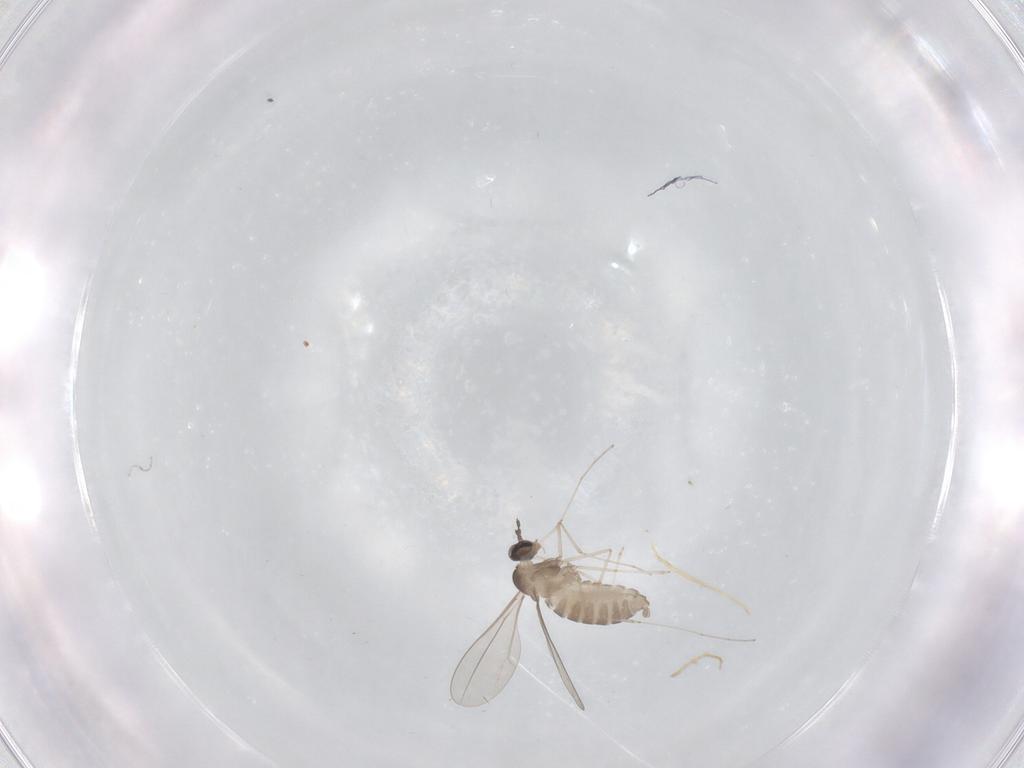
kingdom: Animalia
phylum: Arthropoda
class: Insecta
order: Diptera
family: Cecidomyiidae
